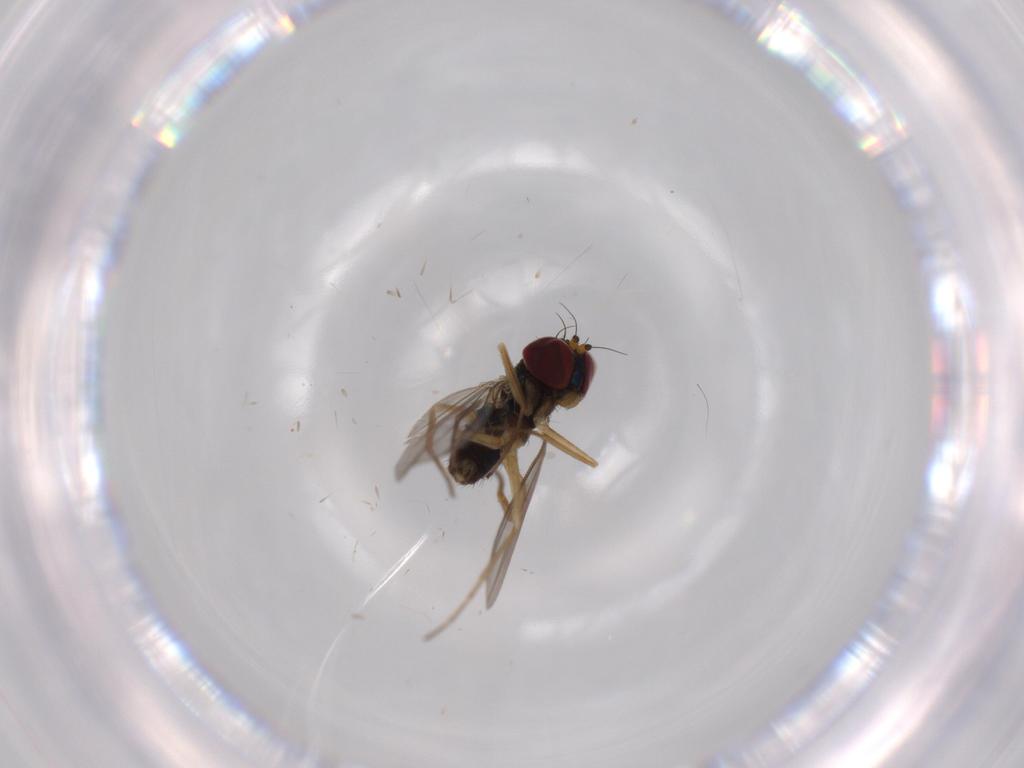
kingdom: Animalia
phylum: Arthropoda
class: Insecta
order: Diptera
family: Dolichopodidae
